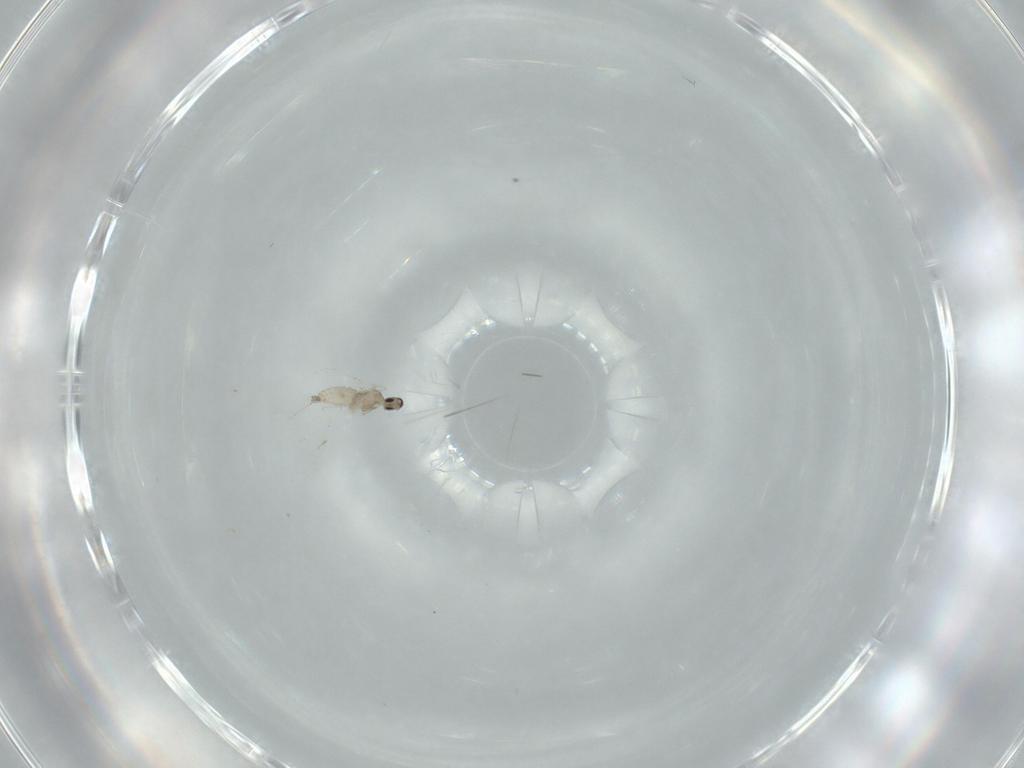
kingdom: Animalia
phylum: Arthropoda
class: Insecta
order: Diptera
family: Cecidomyiidae
